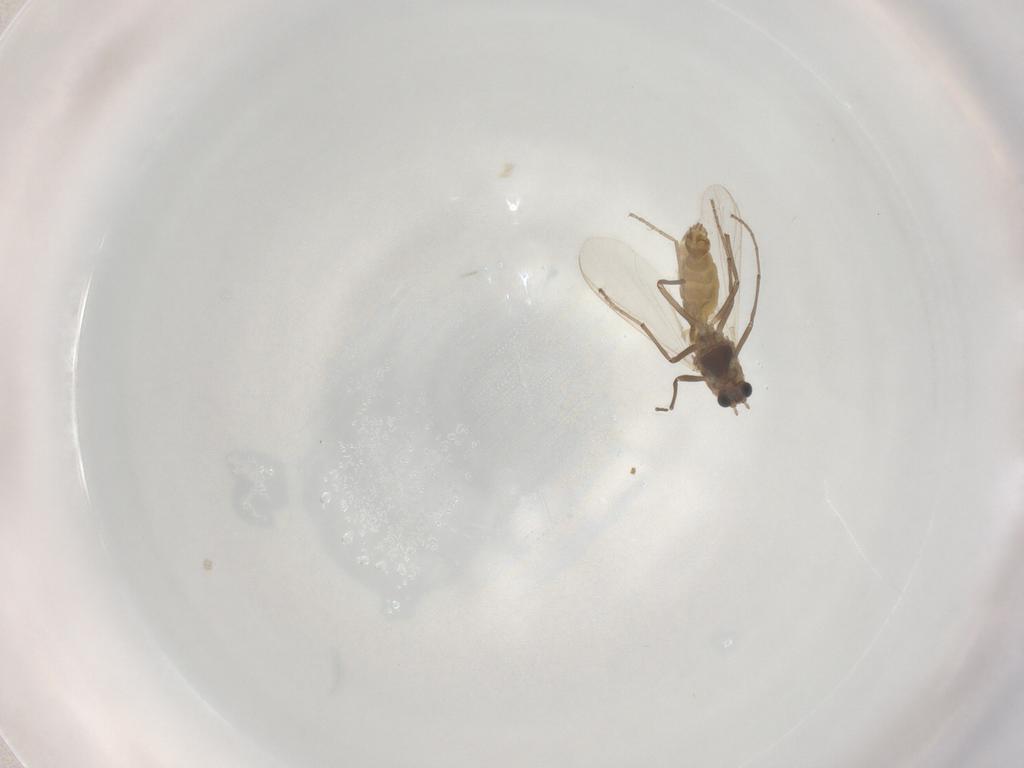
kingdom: Animalia
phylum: Arthropoda
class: Insecta
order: Diptera
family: Chironomidae
